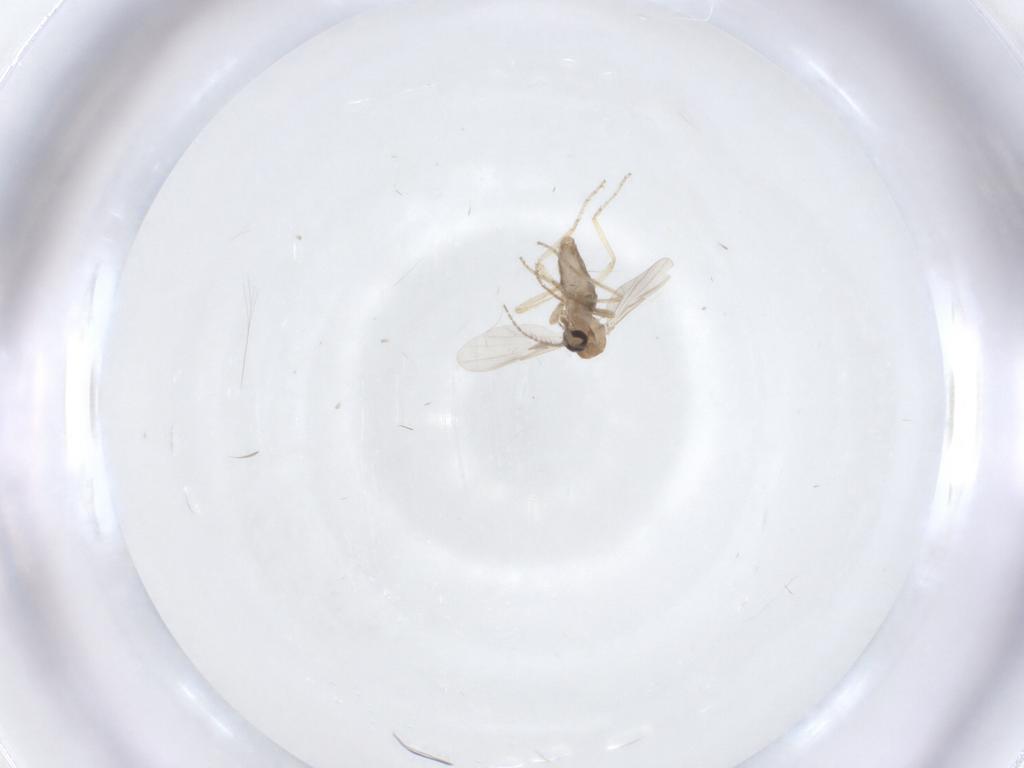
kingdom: Animalia
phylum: Arthropoda
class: Insecta
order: Diptera
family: Ceratopogonidae
